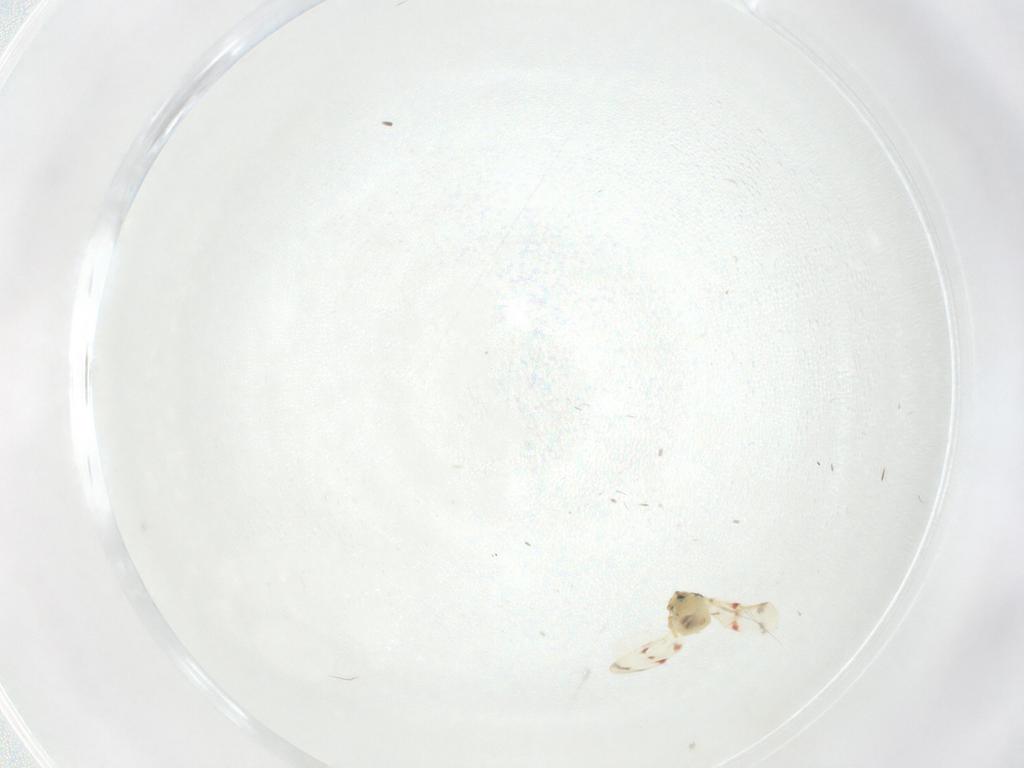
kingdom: Animalia
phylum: Arthropoda
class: Insecta
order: Hemiptera
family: Aleyrodidae
